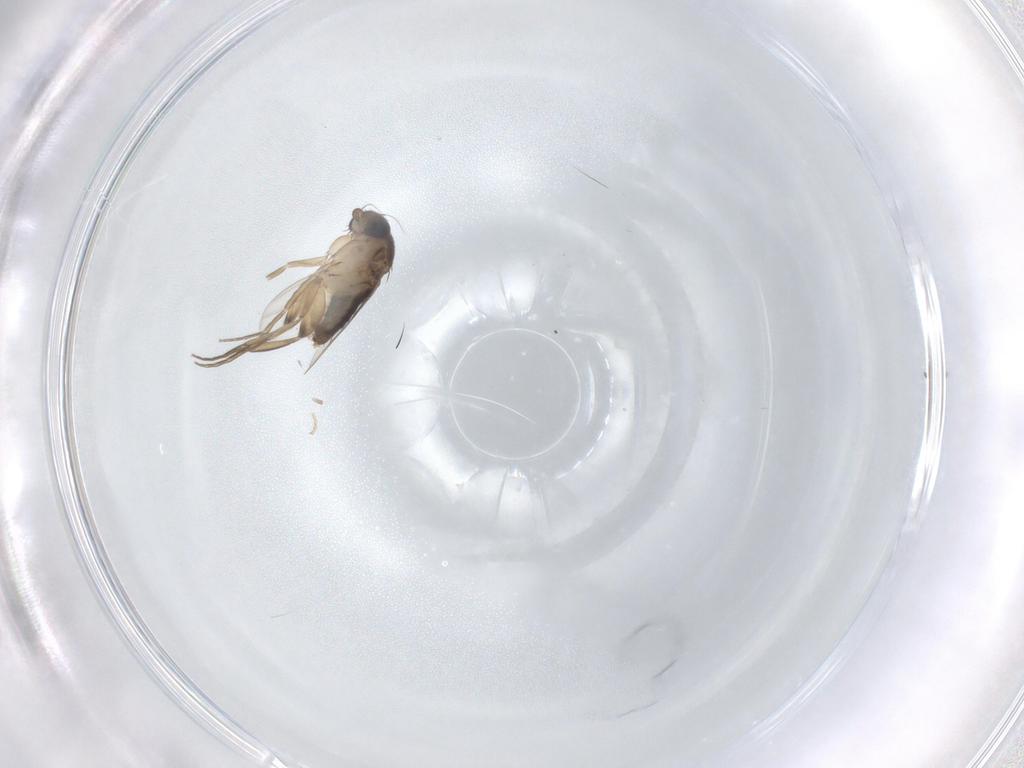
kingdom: Animalia
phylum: Arthropoda
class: Insecta
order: Diptera
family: Phoridae
